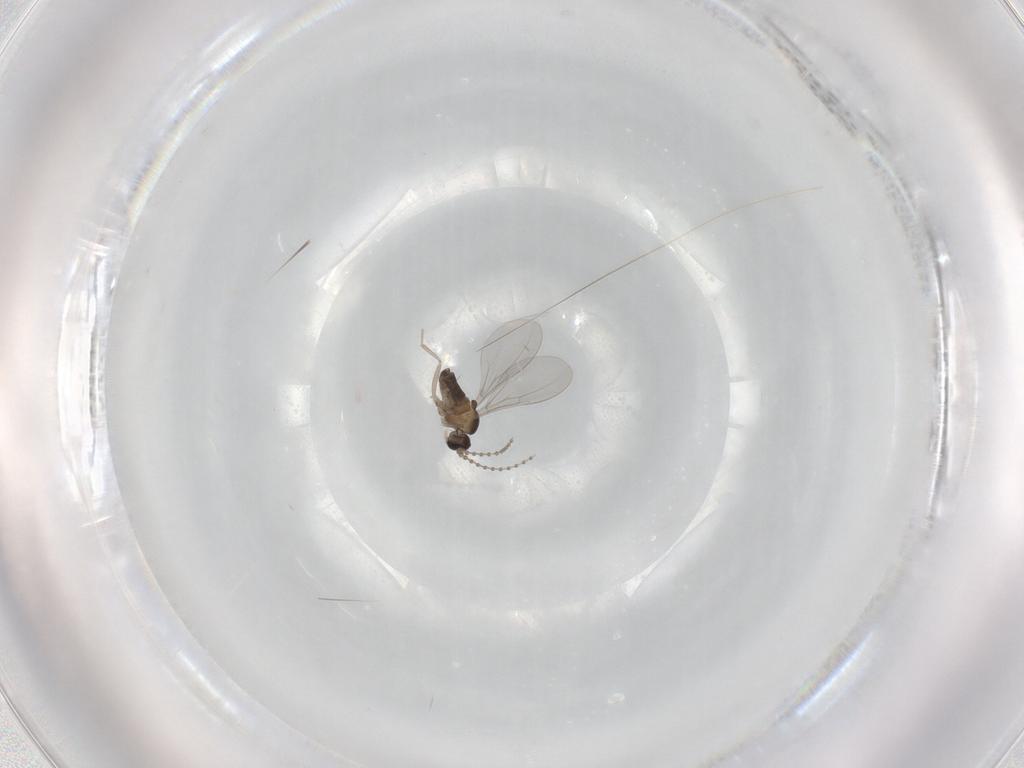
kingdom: Animalia
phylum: Arthropoda
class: Insecta
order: Diptera
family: Cecidomyiidae
